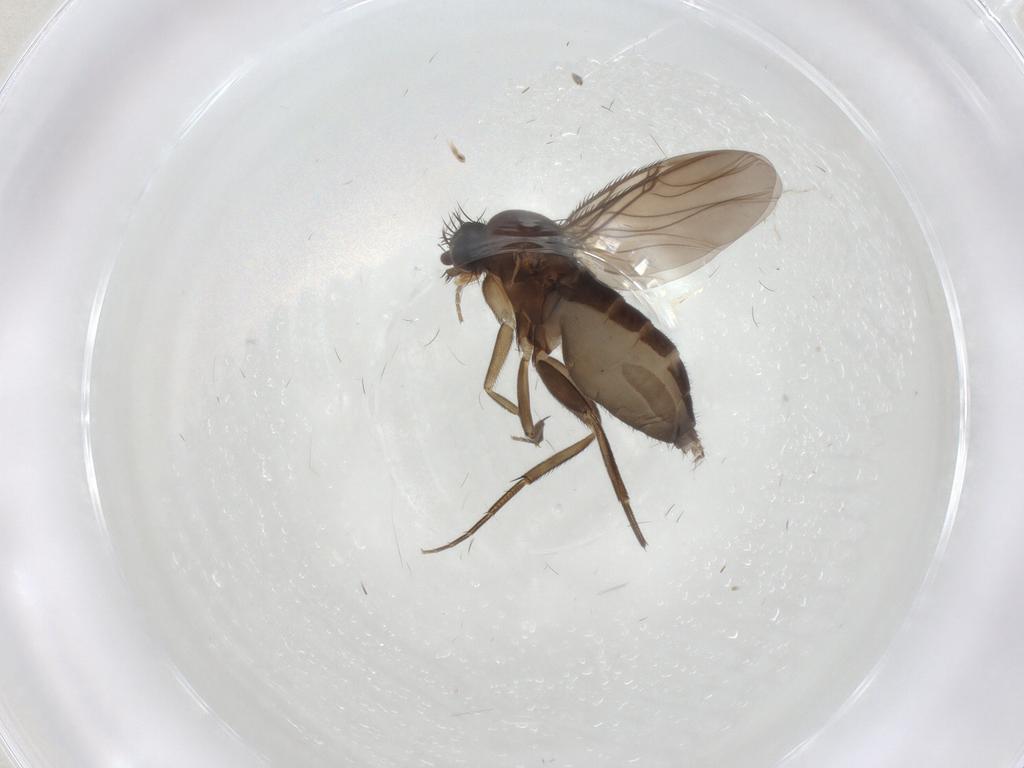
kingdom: Animalia
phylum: Arthropoda
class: Insecta
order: Diptera
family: Phoridae
